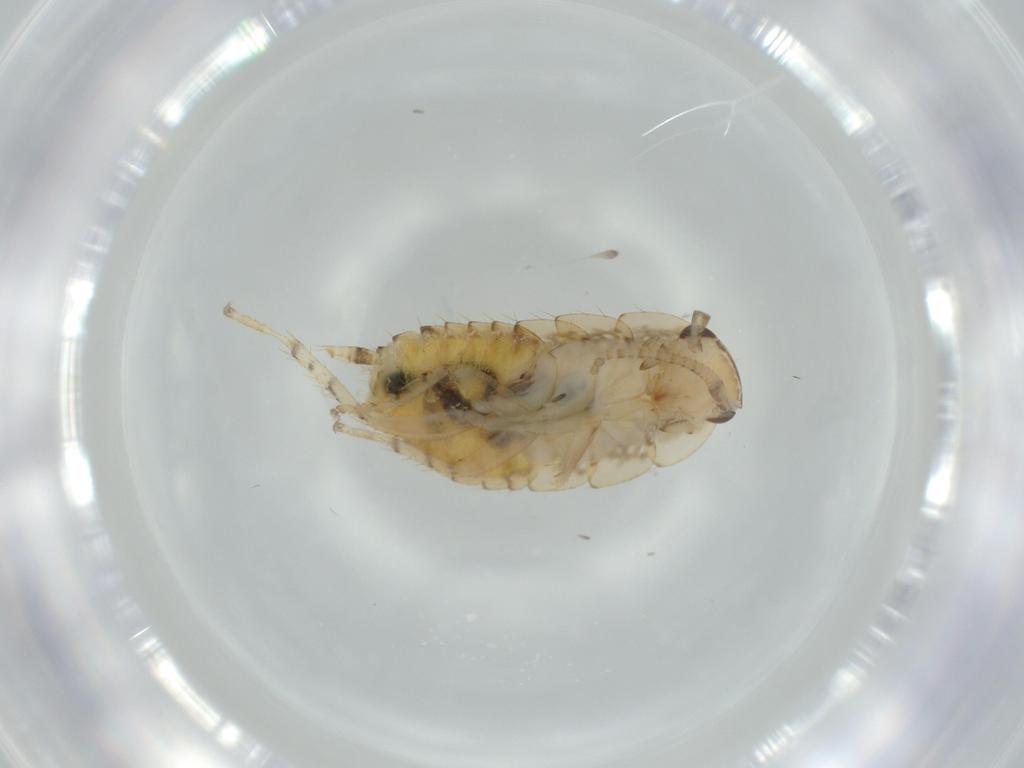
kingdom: Animalia
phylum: Arthropoda
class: Insecta
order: Blattodea
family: Ectobiidae
